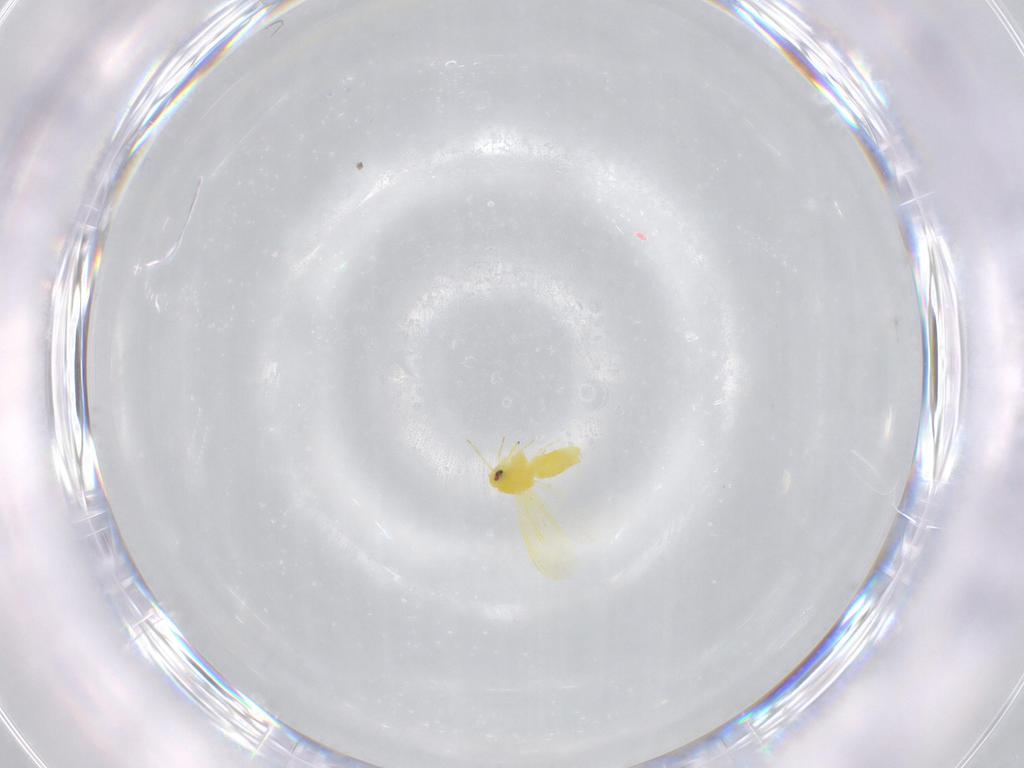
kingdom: Animalia
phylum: Arthropoda
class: Insecta
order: Hemiptera
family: Aleyrodidae
